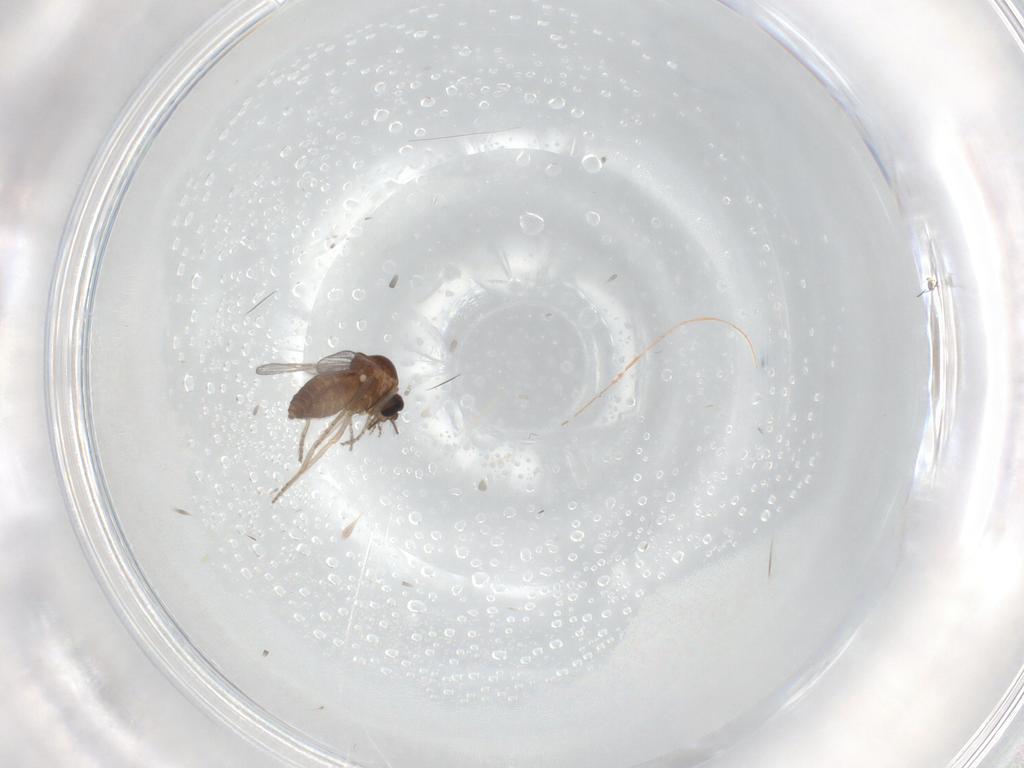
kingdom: Animalia
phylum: Arthropoda
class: Insecta
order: Diptera
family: Ceratopogonidae
